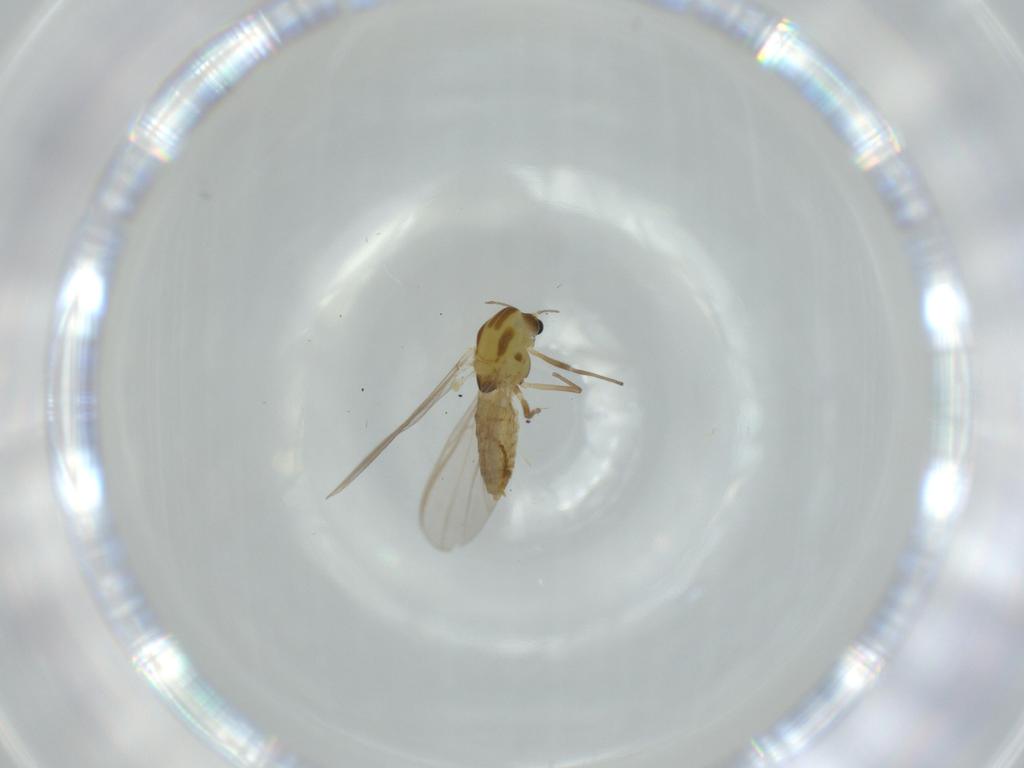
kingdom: Animalia
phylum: Arthropoda
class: Insecta
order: Diptera
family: Chironomidae
